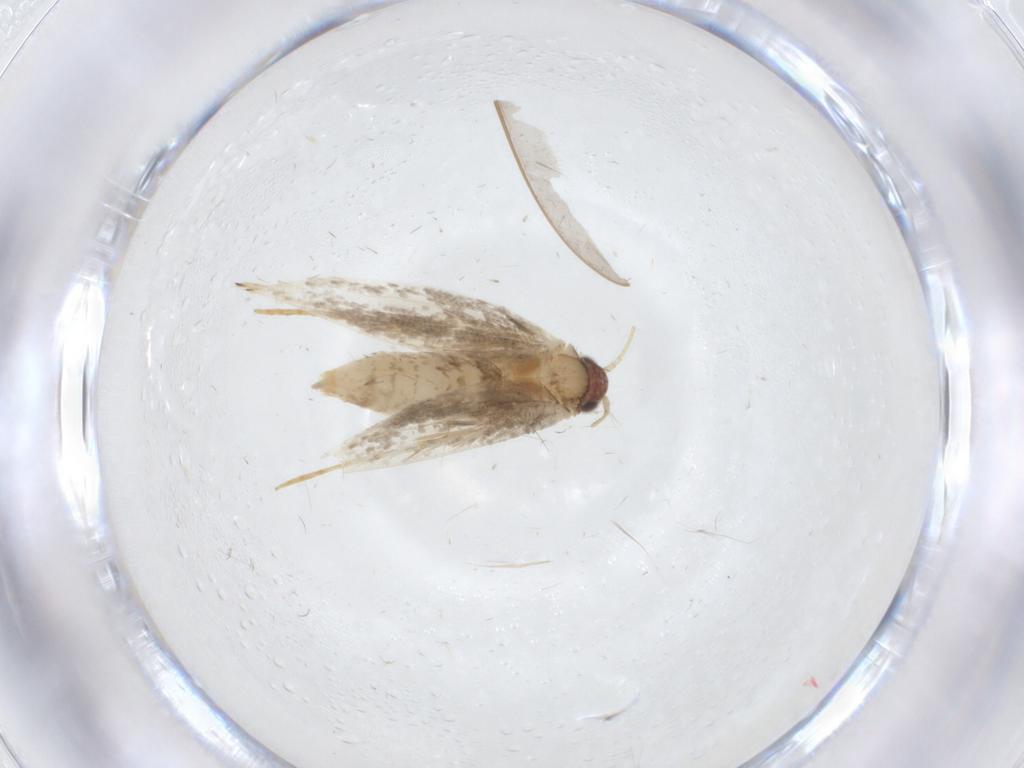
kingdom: Animalia
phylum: Arthropoda
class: Insecta
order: Lepidoptera
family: Tineidae
